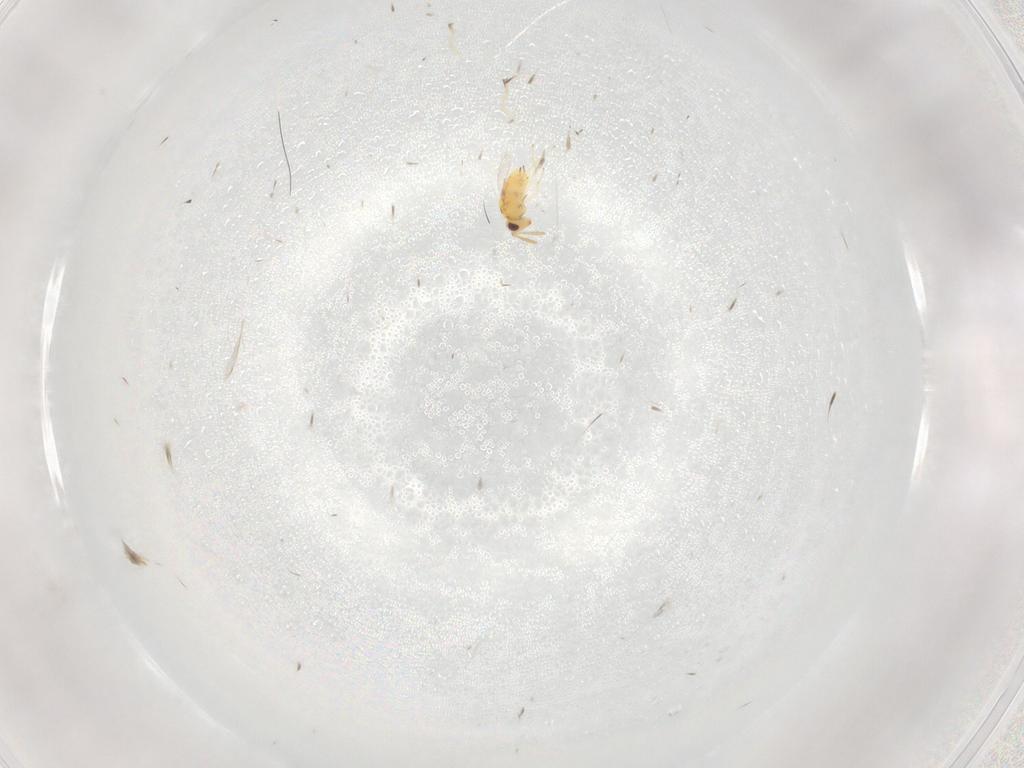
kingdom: Animalia
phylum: Arthropoda
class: Insecta
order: Hymenoptera
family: Aphelinidae
